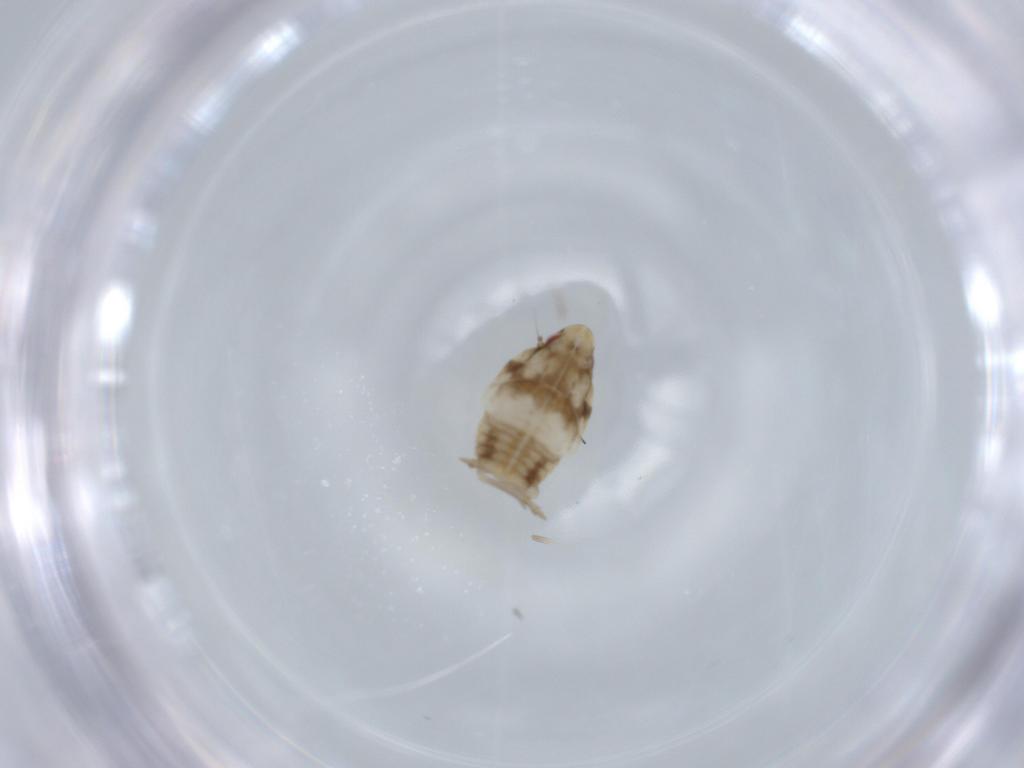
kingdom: Animalia
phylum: Arthropoda
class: Insecta
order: Hemiptera
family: Flatidae
